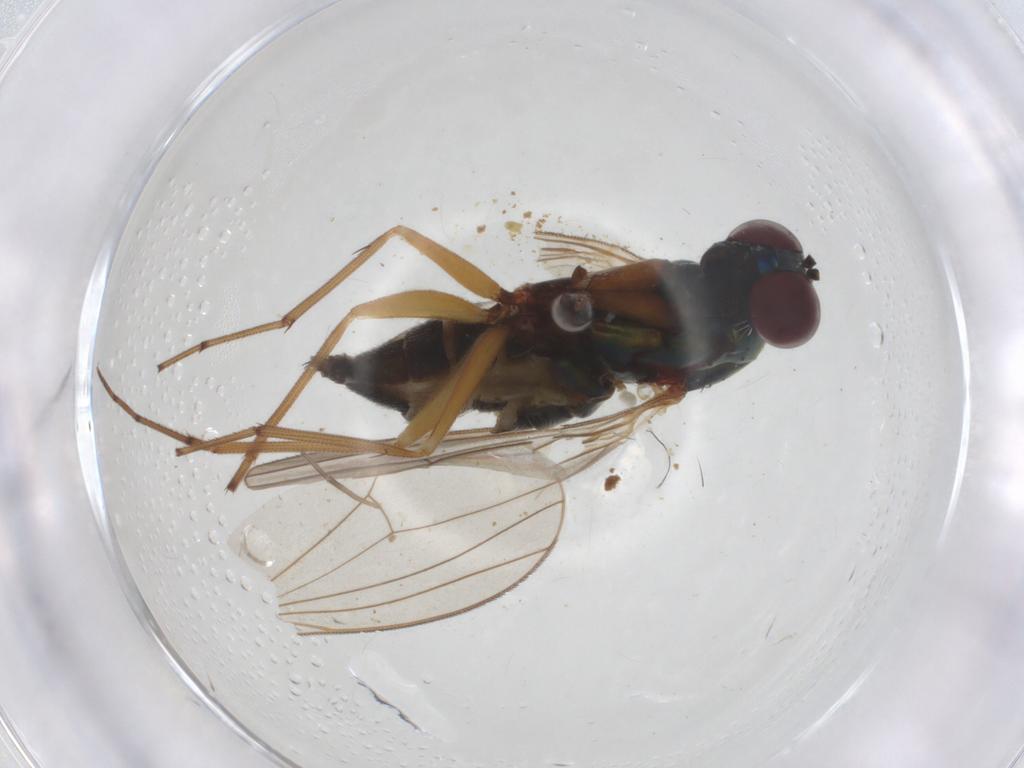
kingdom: Animalia
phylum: Arthropoda
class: Insecta
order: Diptera
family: Chironomidae
